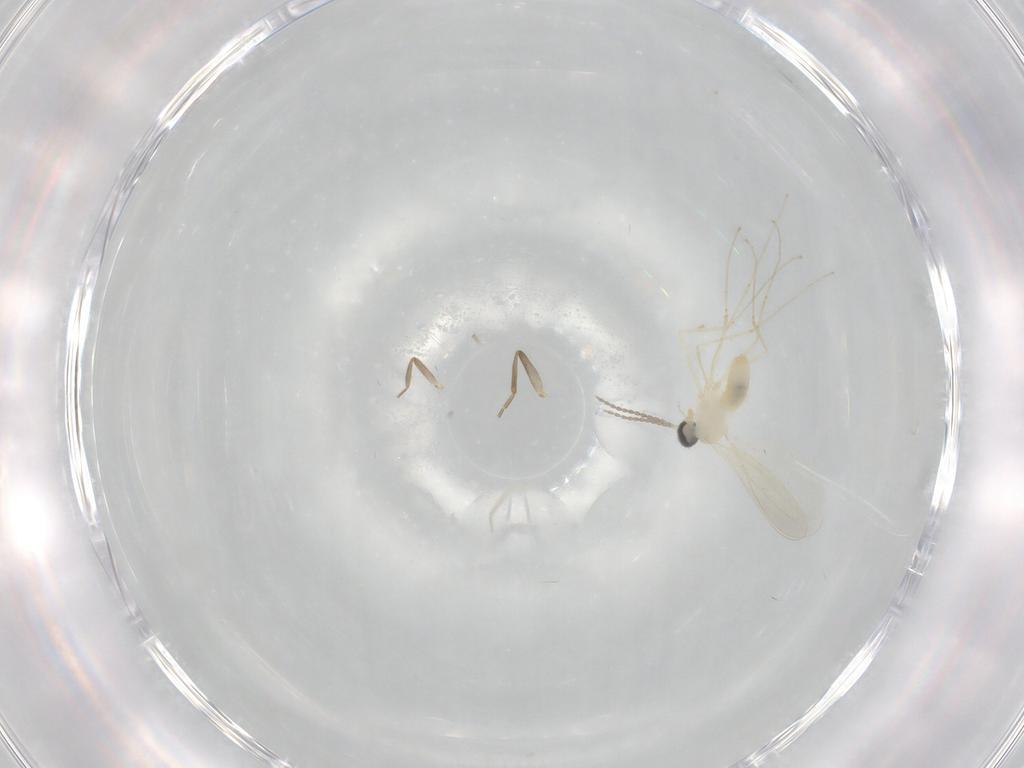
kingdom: Animalia
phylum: Arthropoda
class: Insecta
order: Diptera
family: Cecidomyiidae
